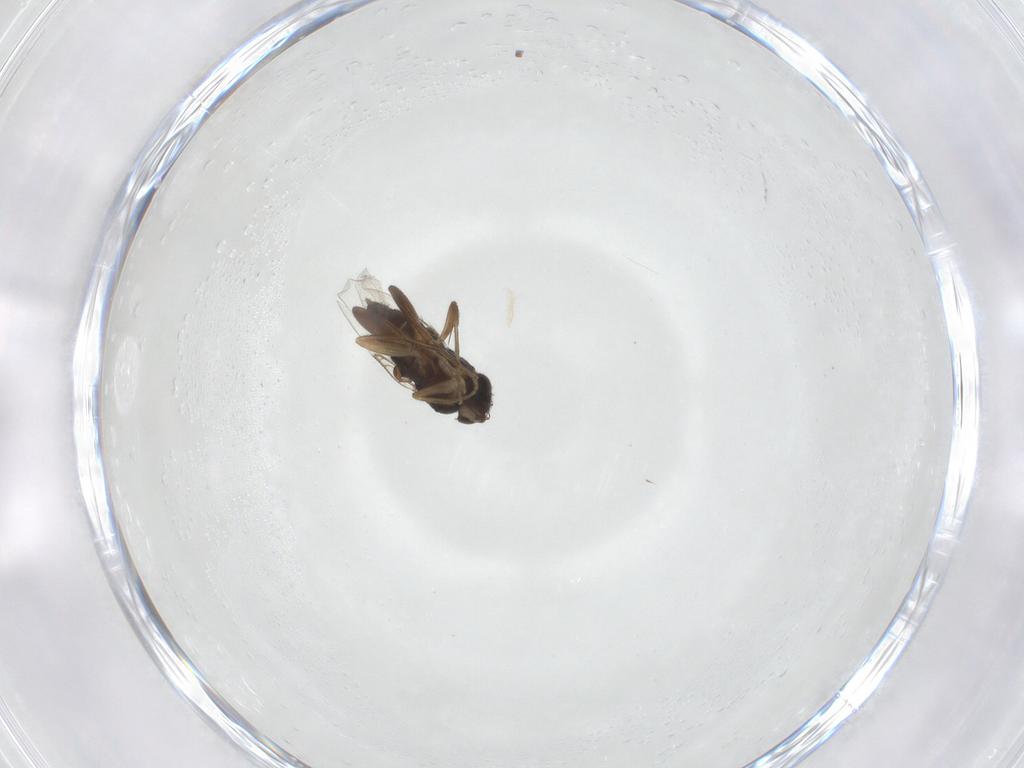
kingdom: Animalia
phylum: Arthropoda
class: Insecta
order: Diptera
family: Phoridae
